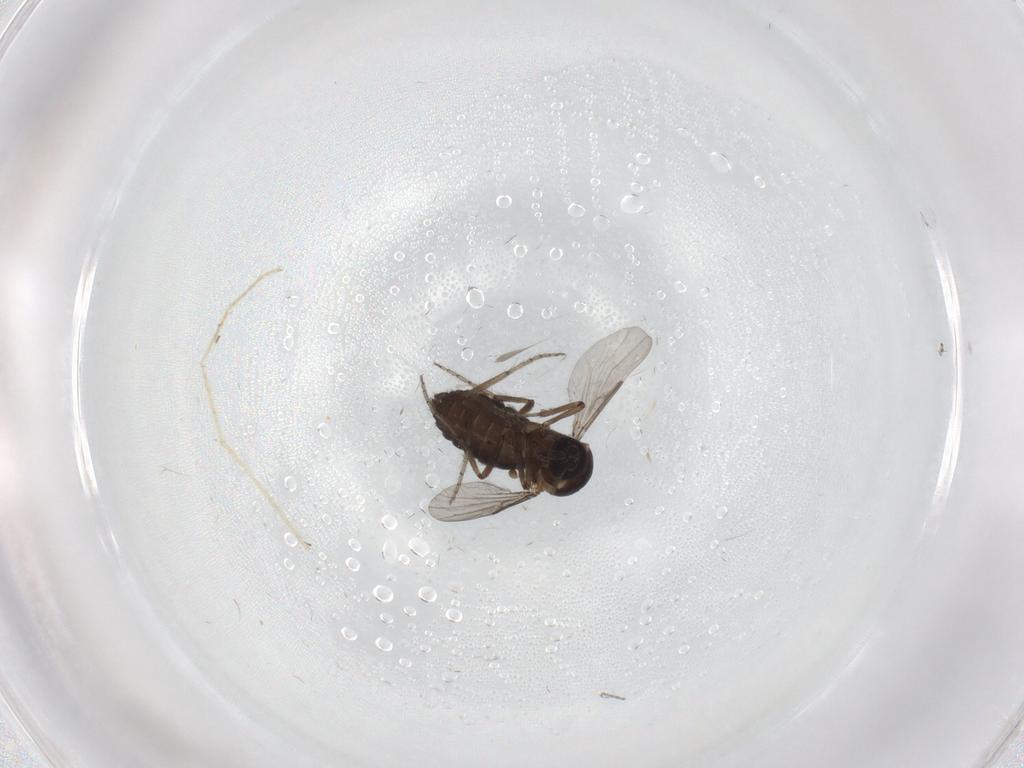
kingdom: Animalia
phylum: Arthropoda
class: Insecta
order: Diptera
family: Ceratopogonidae
